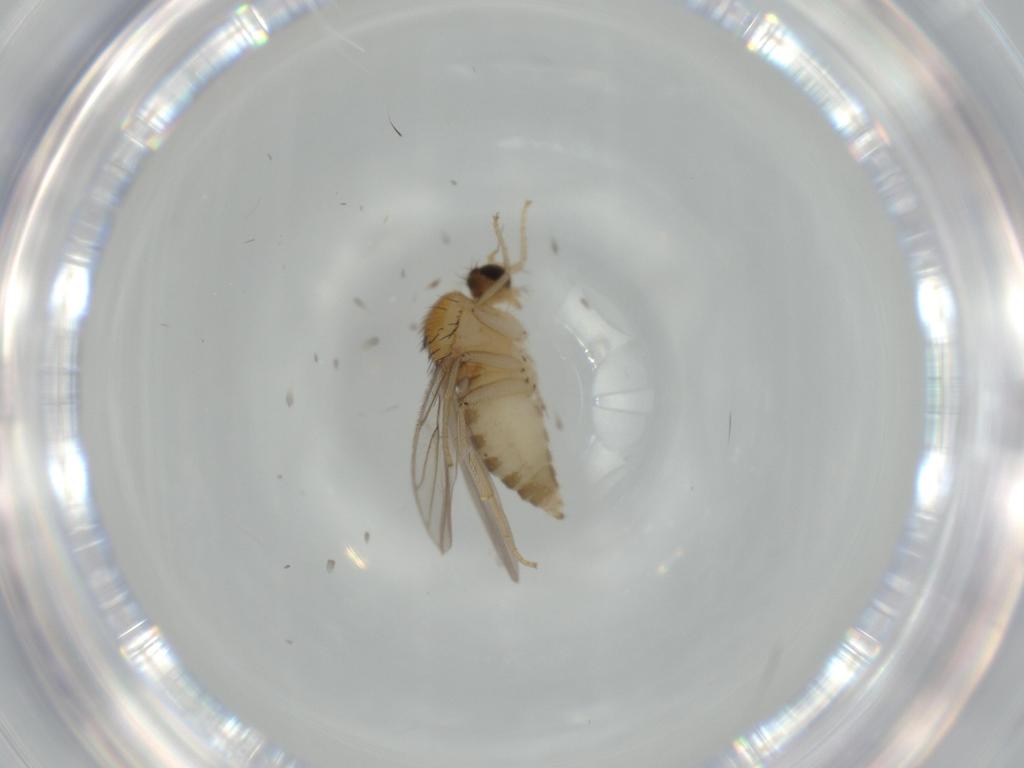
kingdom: Animalia
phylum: Arthropoda
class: Insecta
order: Diptera
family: Hybotidae
